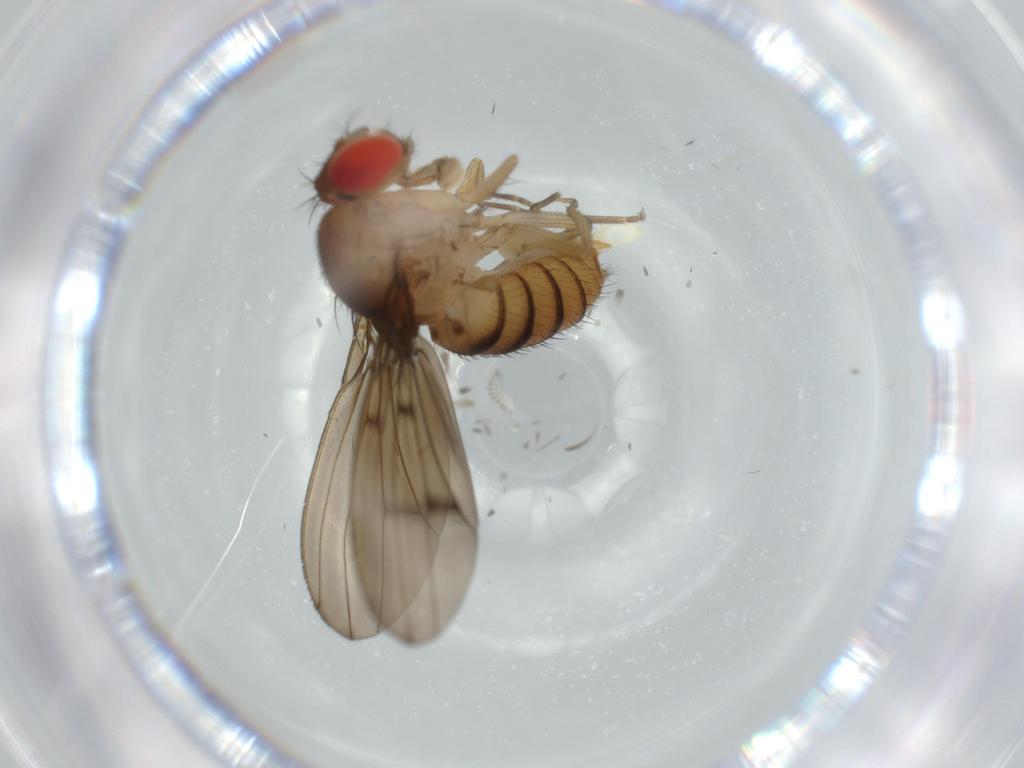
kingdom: Animalia
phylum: Arthropoda
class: Insecta
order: Diptera
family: Drosophilidae
